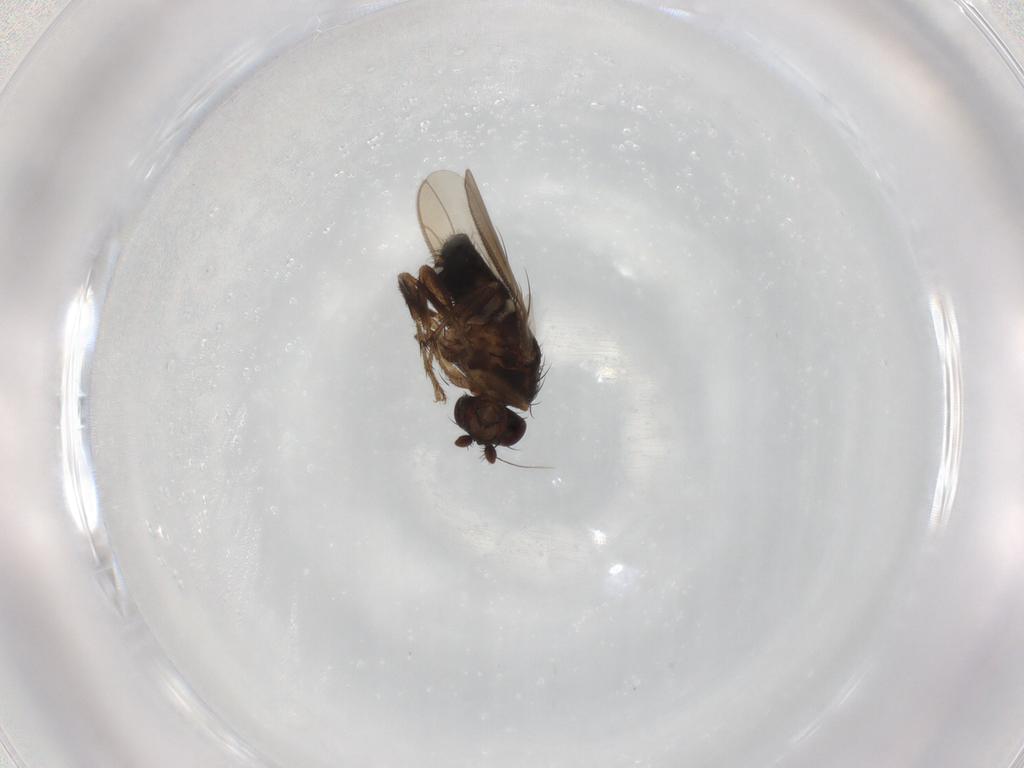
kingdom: Animalia
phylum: Arthropoda
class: Insecta
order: Diptera
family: Sphaeroceridae
